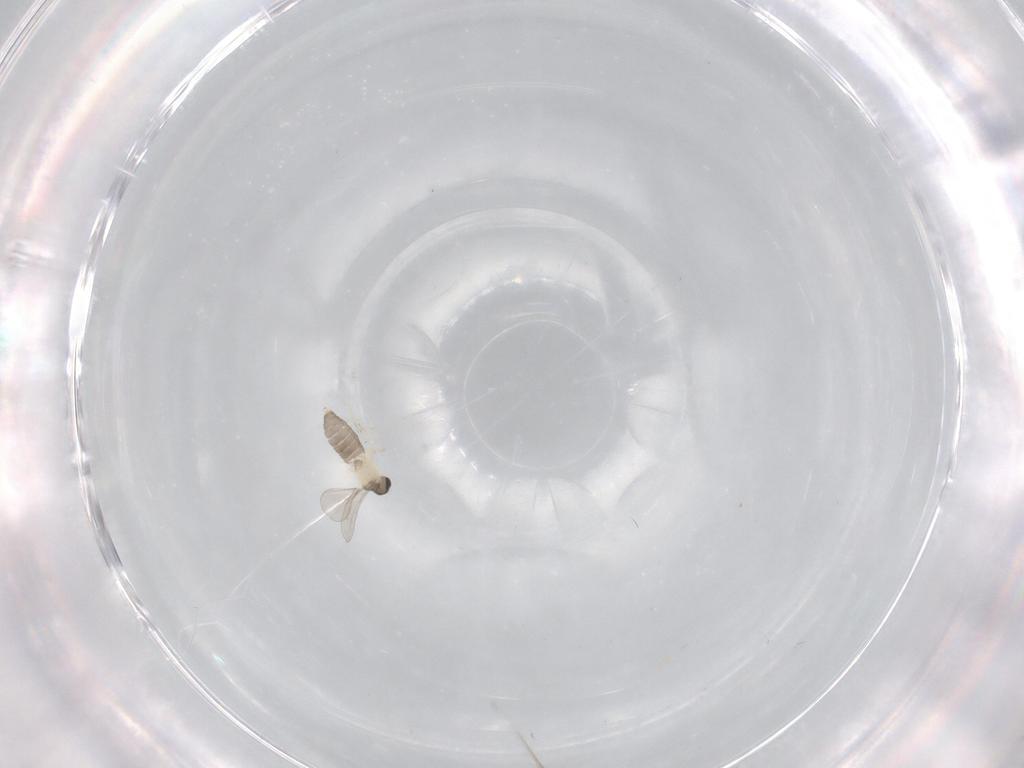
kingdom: Animalia
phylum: Arthropoda
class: Insecta
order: Diptera
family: Cecidomyiidae
